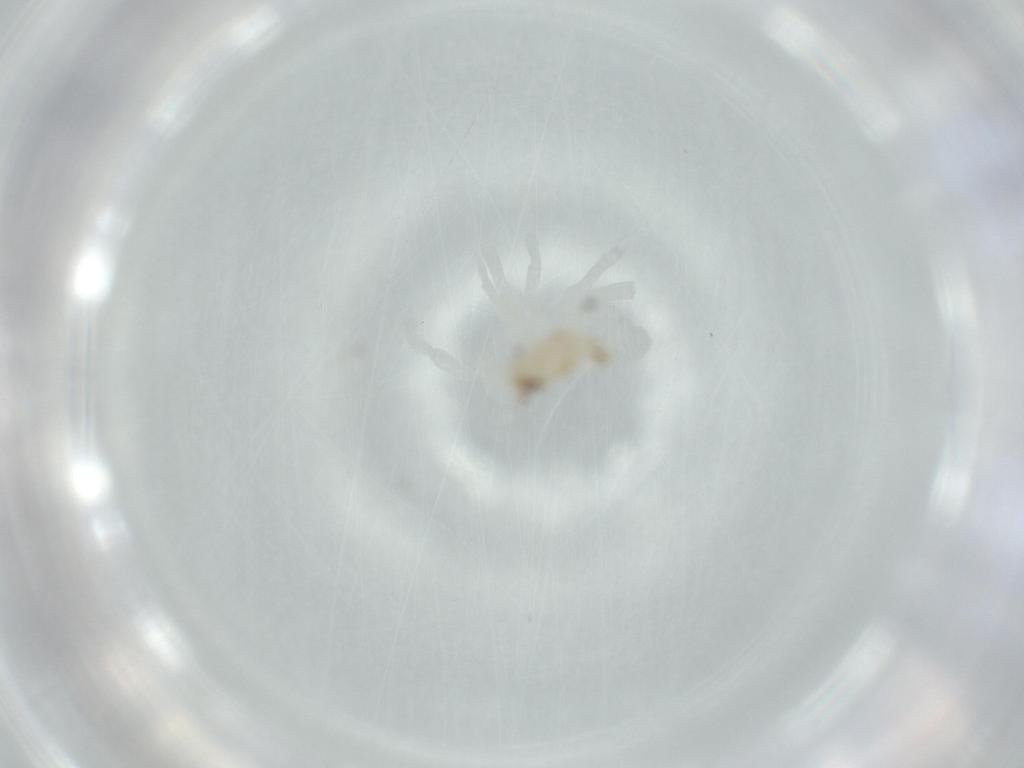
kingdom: Animalia
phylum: Arthropoda
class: Insecta
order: Hemiptera
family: Nogodinidae
